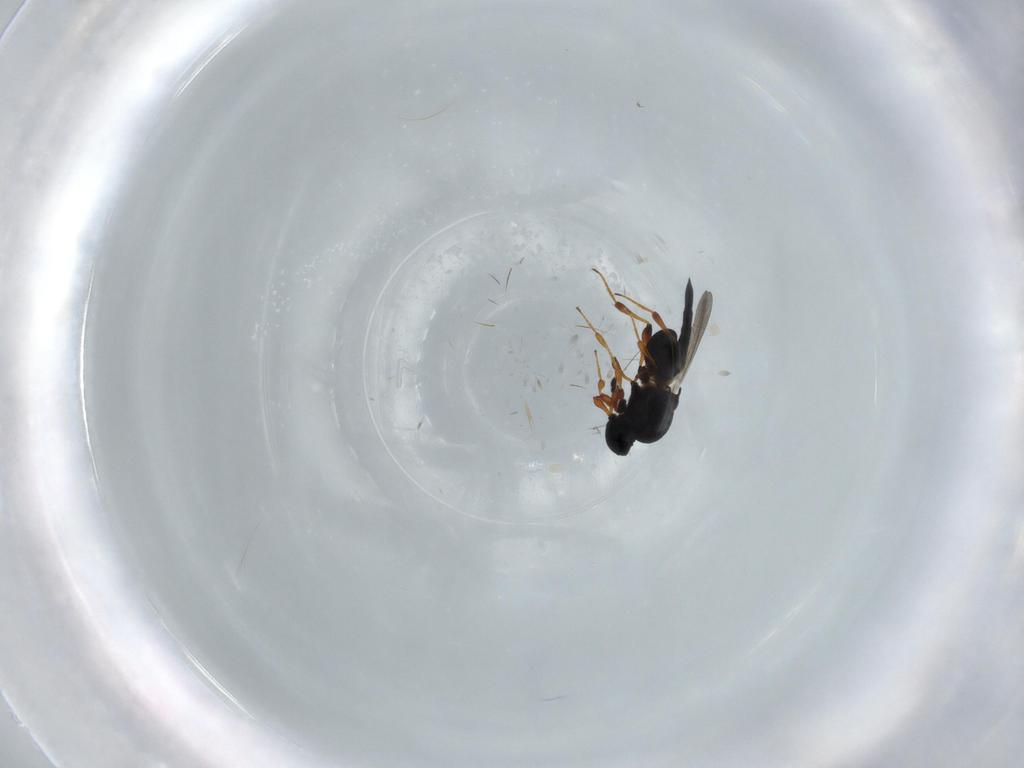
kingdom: Animalia
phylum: Arthropoda
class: Insecta
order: Hymenoptera
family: Platygastridae
